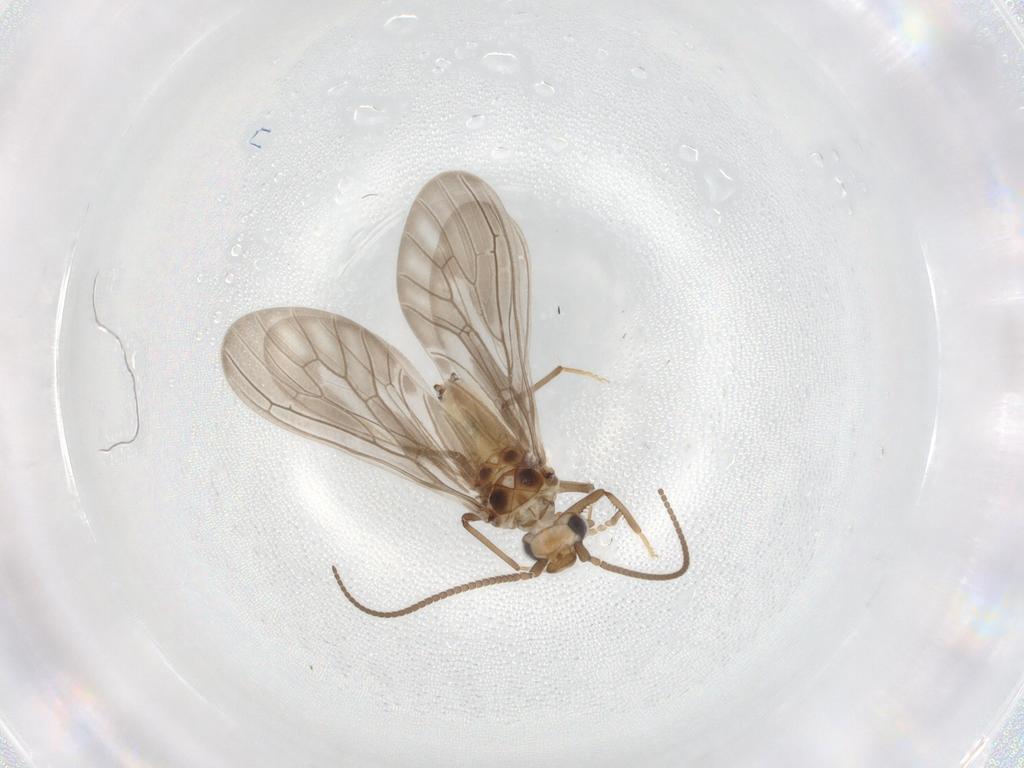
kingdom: Animalia
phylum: Arthropoda
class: Insecta
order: Neuroptera
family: Coniopterygidae
